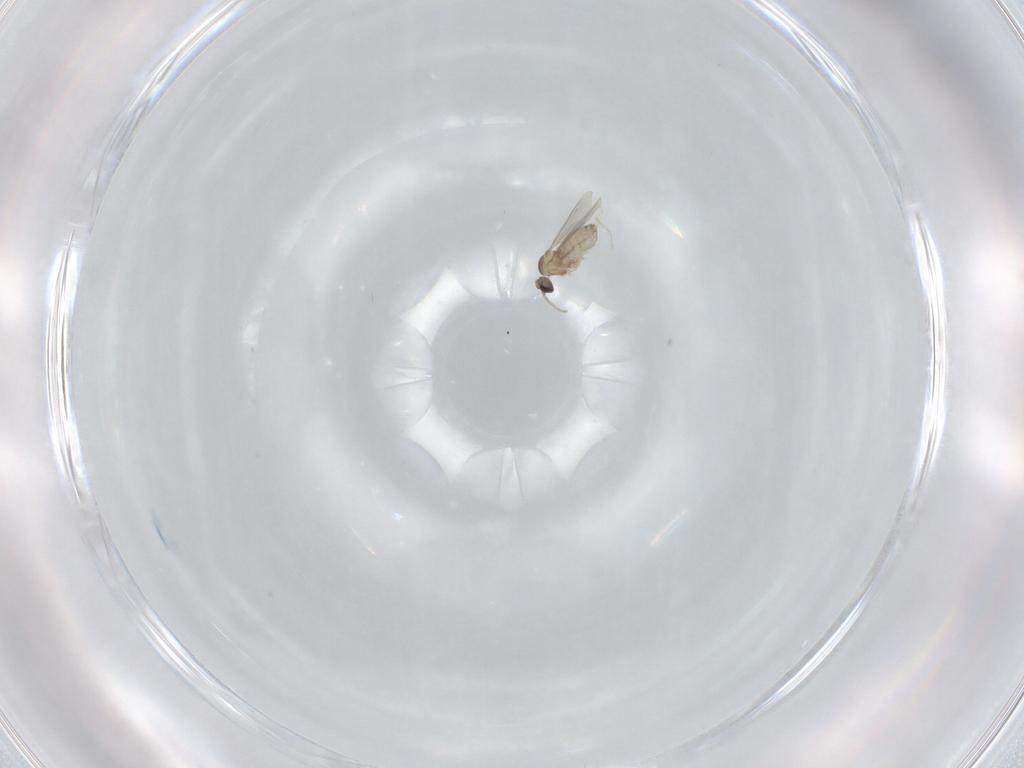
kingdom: Animalia
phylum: Arthropoda
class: Insecta
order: Diptera
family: Cecidomyiidae
